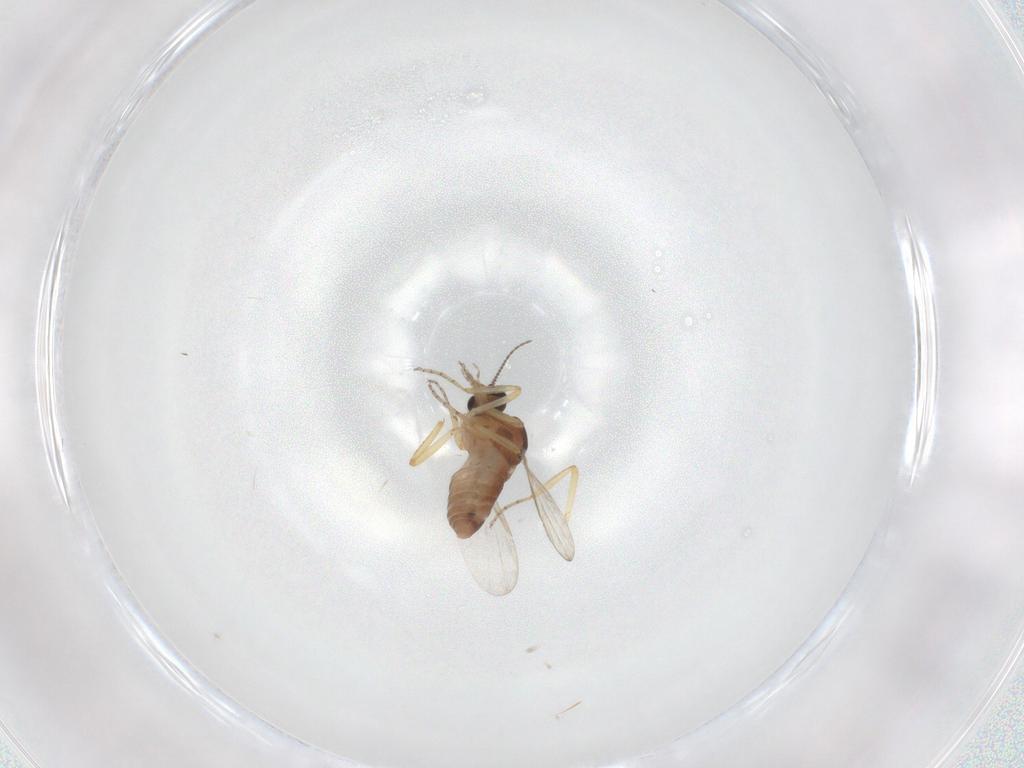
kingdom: Animalia
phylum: Arthropoda
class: Insecta
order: Diptera
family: Ceratopogonidae
